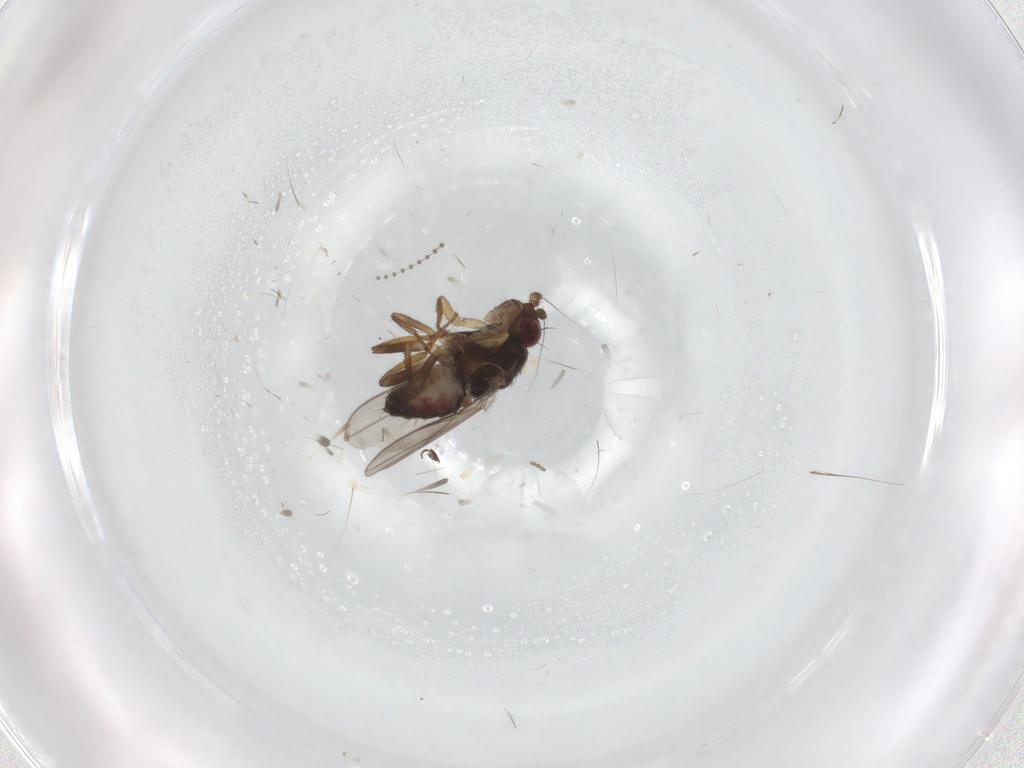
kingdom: Animalia
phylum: Arthropoda
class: Insecta
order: Diptera
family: Psychodidae
